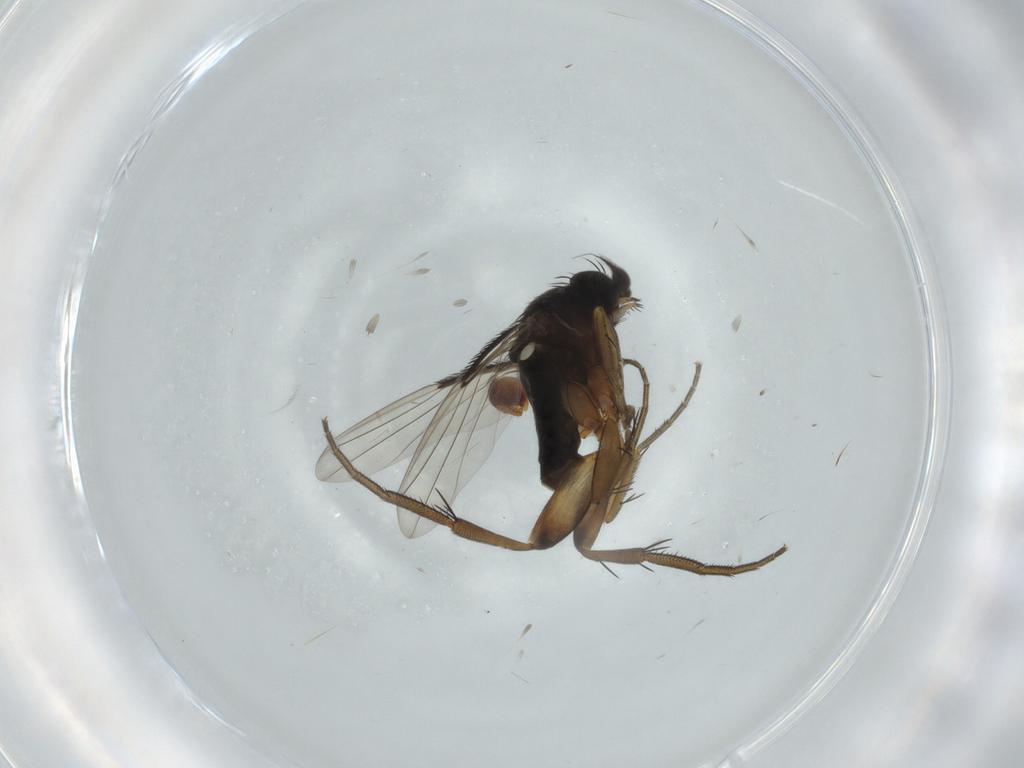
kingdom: Animalia
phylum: Arthropoda
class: Insecta
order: Diptera
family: Phoridae
